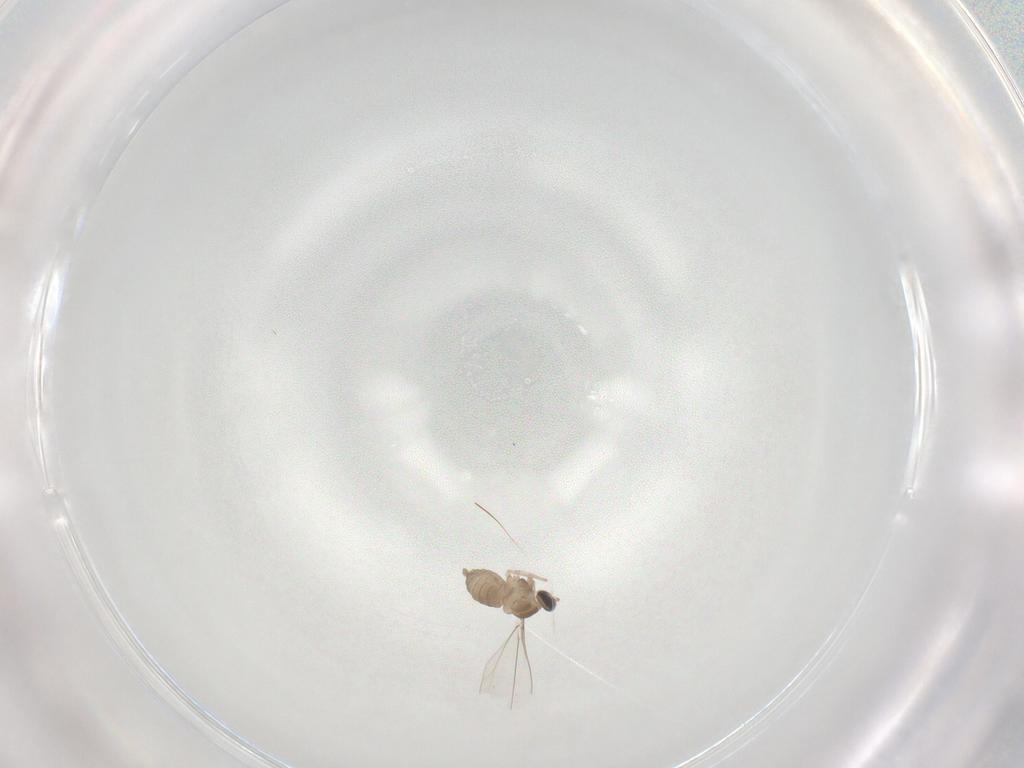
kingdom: Animalia
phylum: Arthropoda
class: Insecta
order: Diptera
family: Cecidomyiidae
